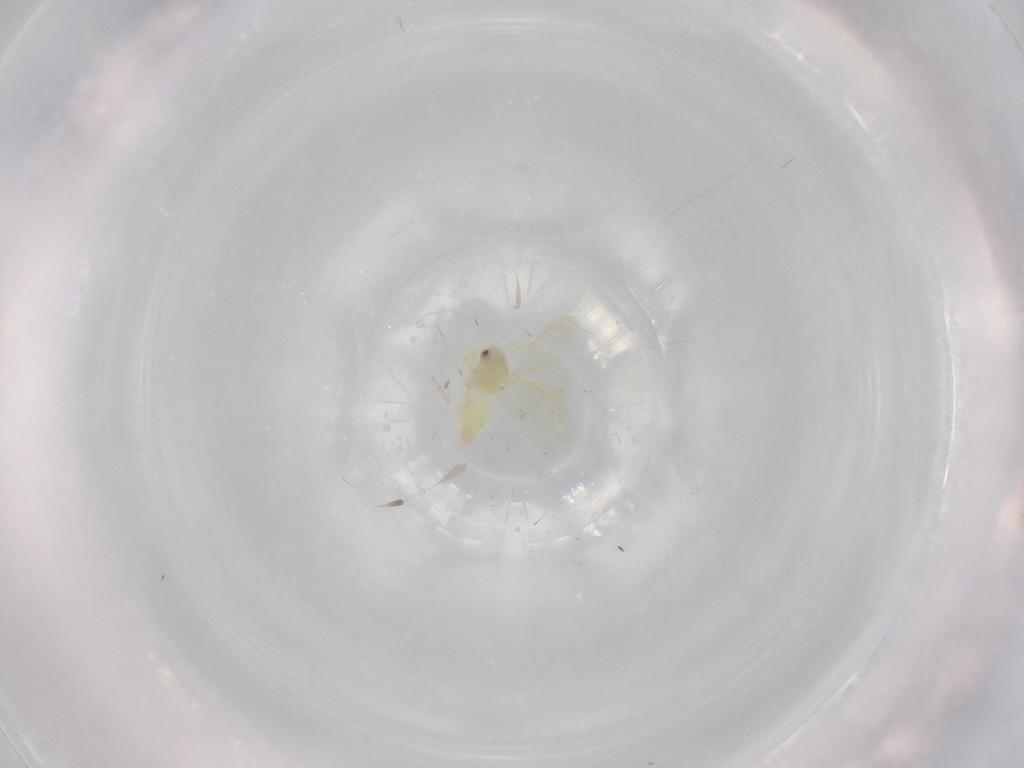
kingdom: Animalia
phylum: Arthropoda
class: Insecta
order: Hemiptera
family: Aleyrodidae
